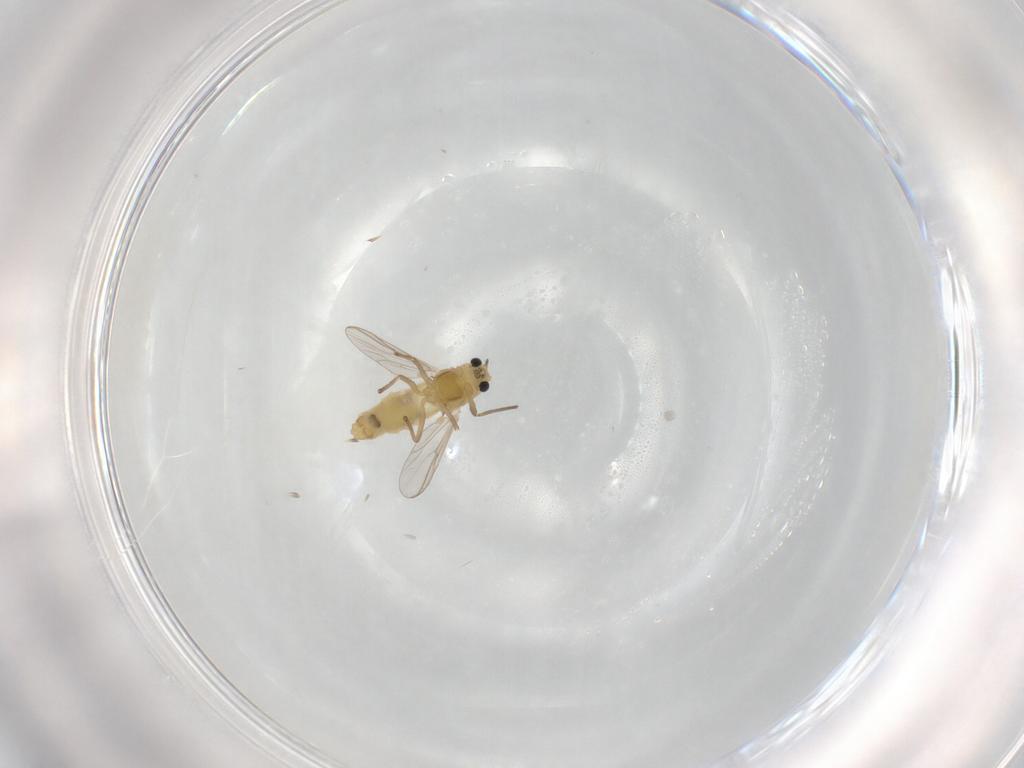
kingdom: Animalia
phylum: Arthropoda
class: Insecta
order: Diptera
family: Chironomidae
